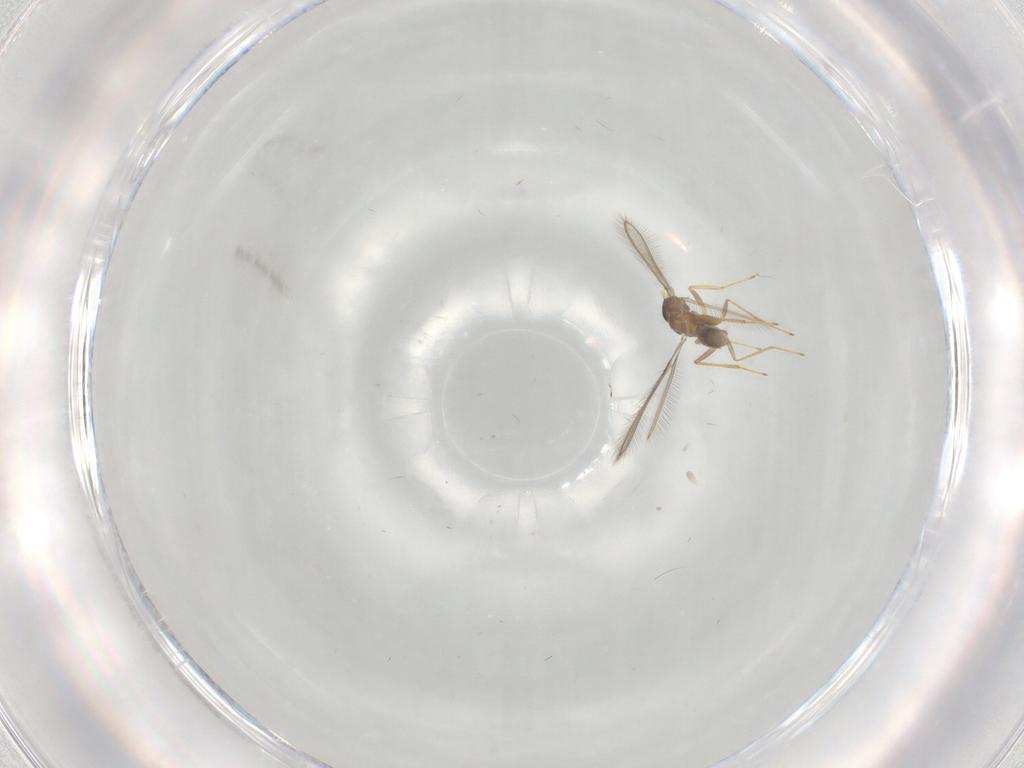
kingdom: Animalia
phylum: Arthropoda
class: Insecta
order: Hymenoptera
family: Mymaridae
